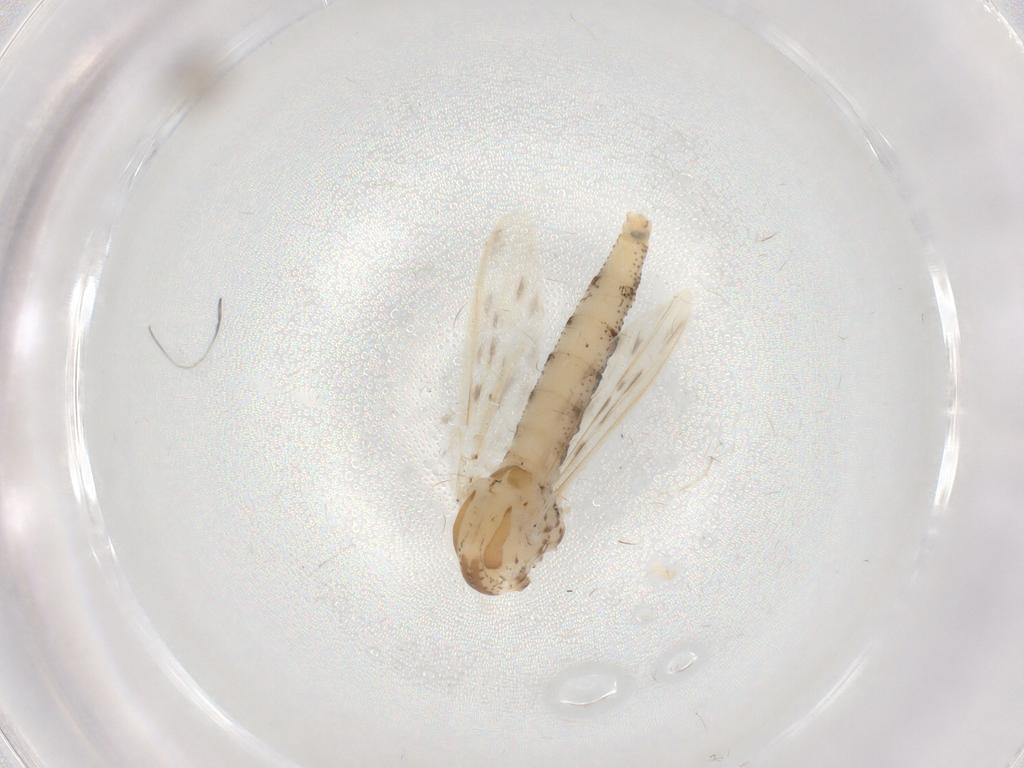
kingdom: Animalia
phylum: Arthropoda
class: Insecta
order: Diptera
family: Chaoboridae
